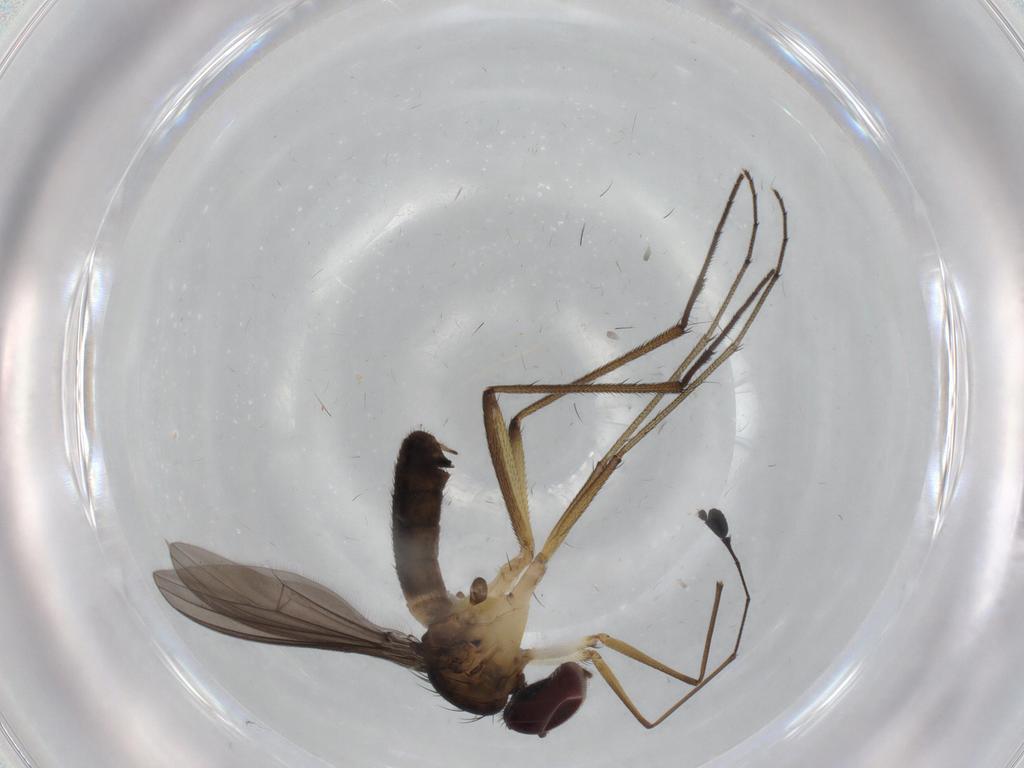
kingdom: Animalia
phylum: Arthropoda
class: Insecta
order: Diptera
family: Dolichopodidae
